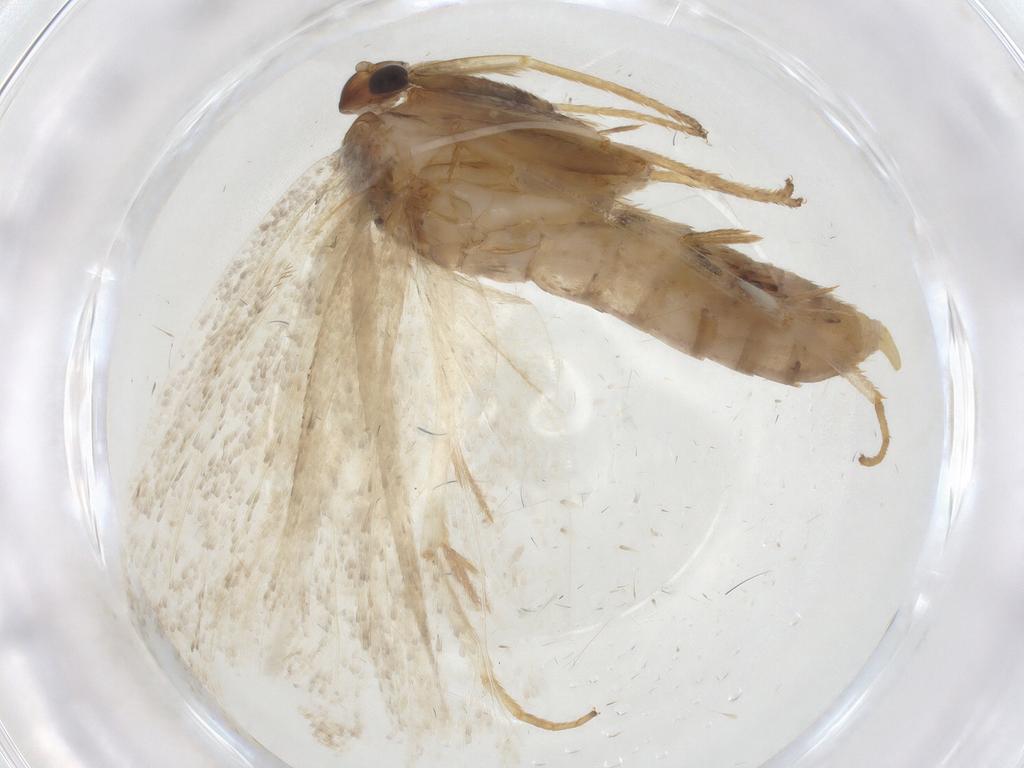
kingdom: Animalia
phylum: Arthropoda
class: Insecta
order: Lepidoptera
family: Depressariidae
